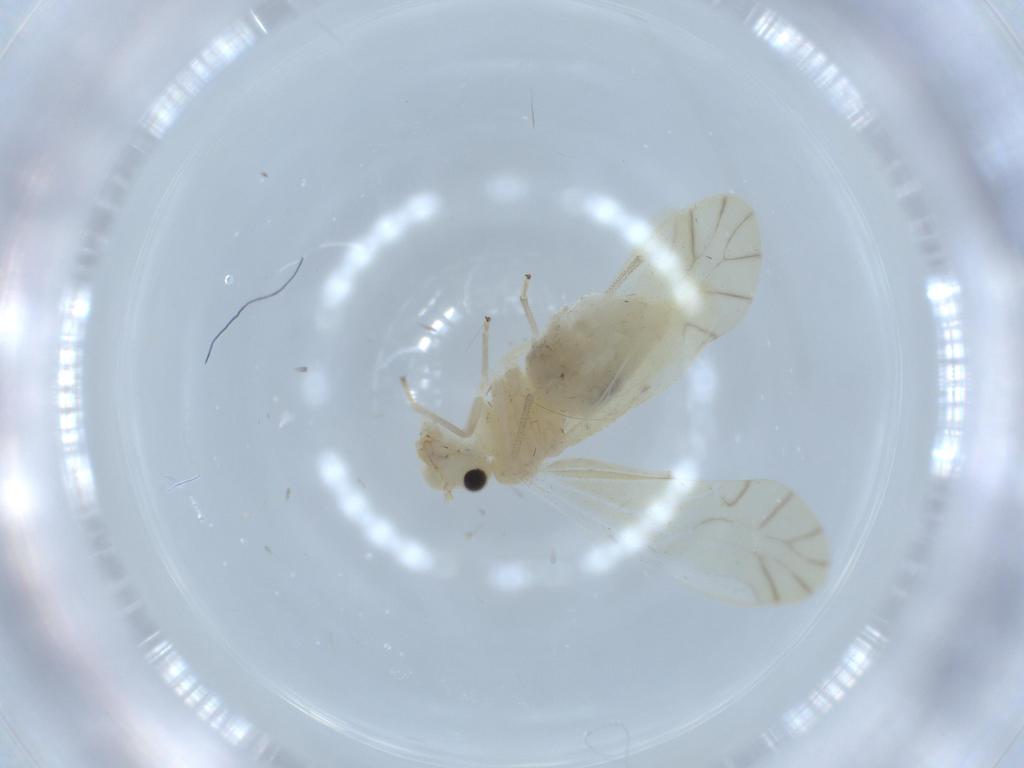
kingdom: Animalia
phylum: Arthropoda
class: Insecta
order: Psocodea
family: Caeciliusidae
